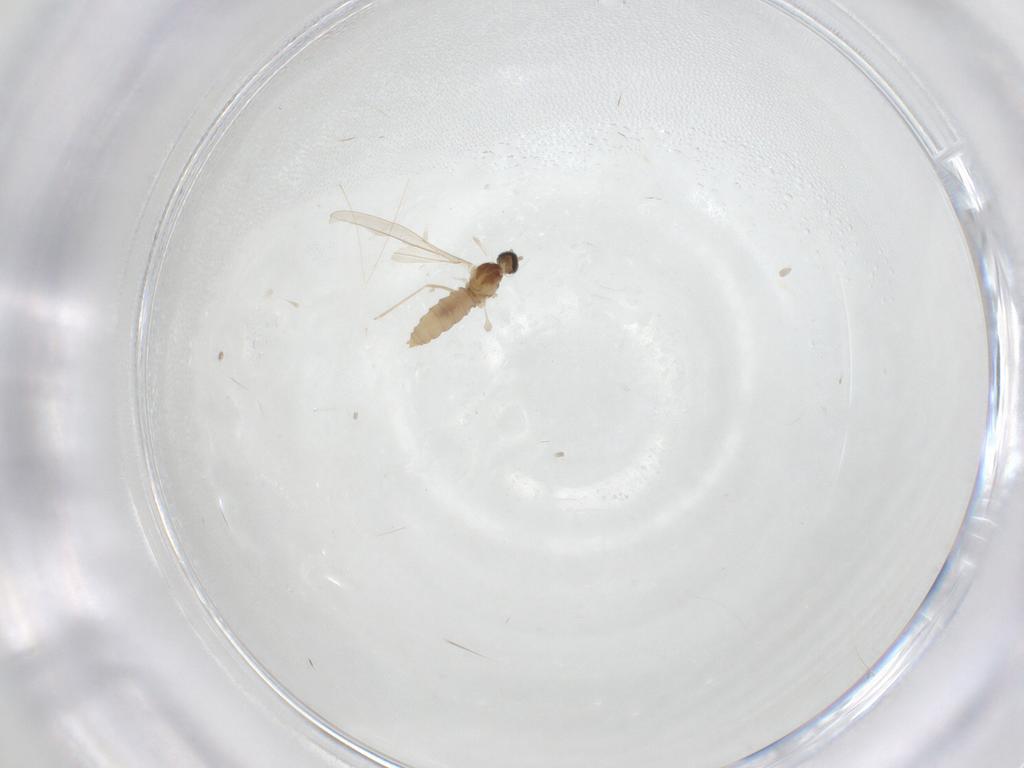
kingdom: Animalia
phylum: Arthropoda
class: Insecta
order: Diptera
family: Cecidomyiidae
